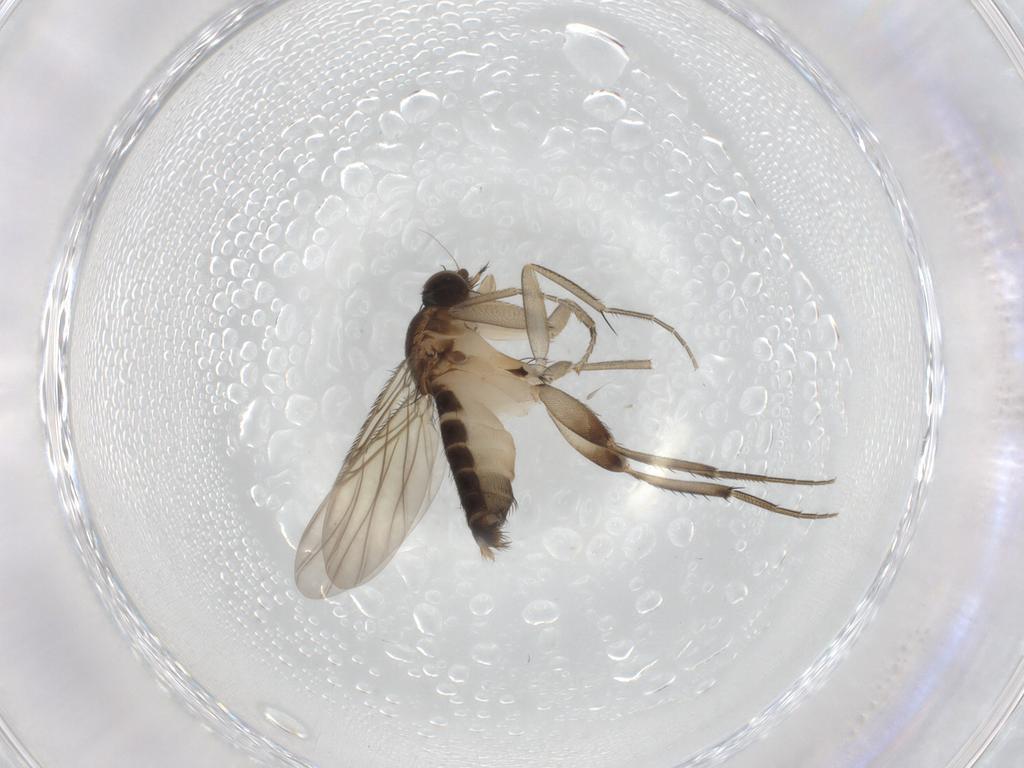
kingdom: Animalia
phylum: Arthropoda
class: Insecta
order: Diptera
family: Phoridae
